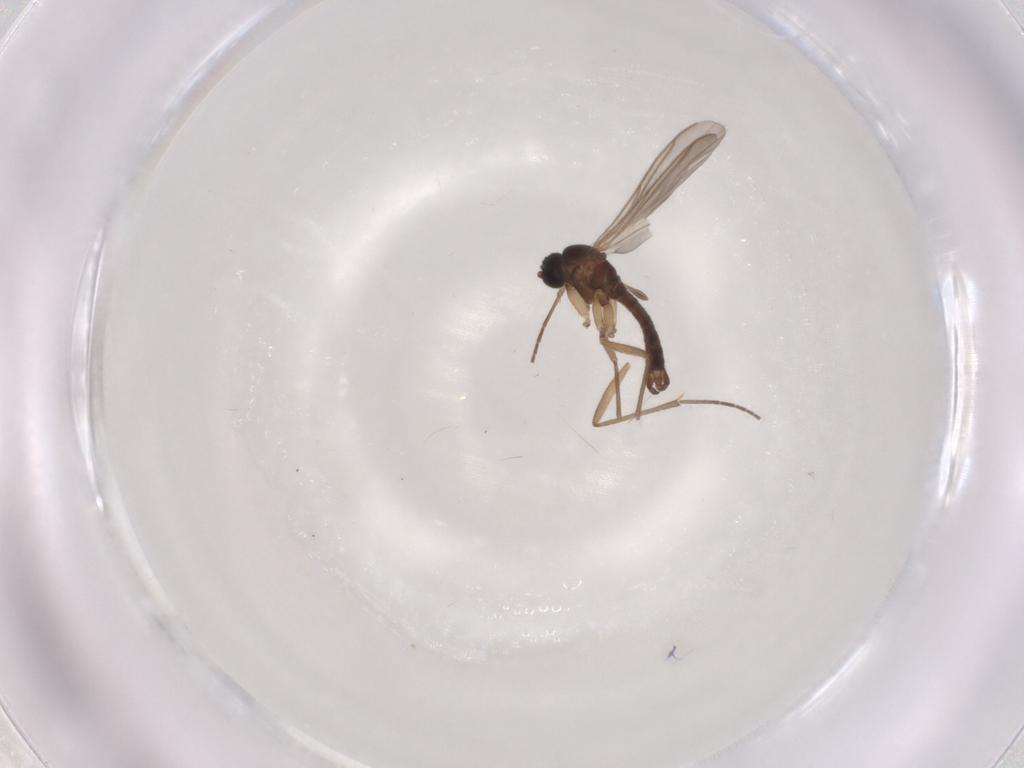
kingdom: Animalia
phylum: Arthropoda
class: Insecta
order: Diptera
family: Sciaridae
